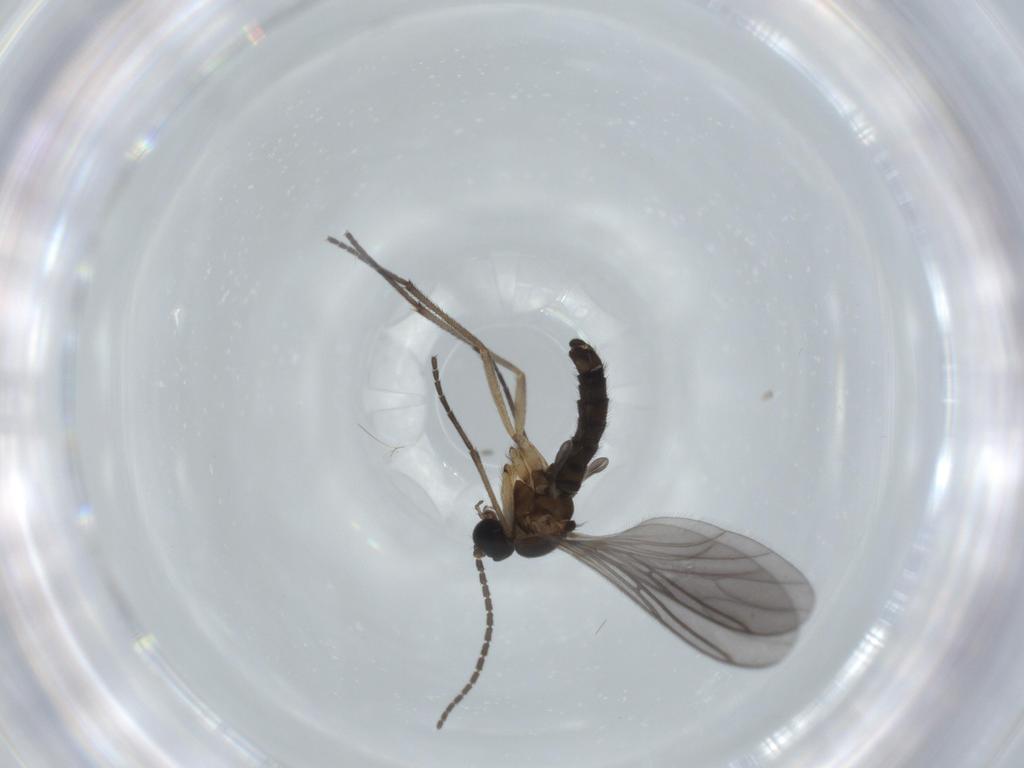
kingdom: Animalia
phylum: Arthropoda
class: Insecta
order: Diptera
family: Sciaridae
